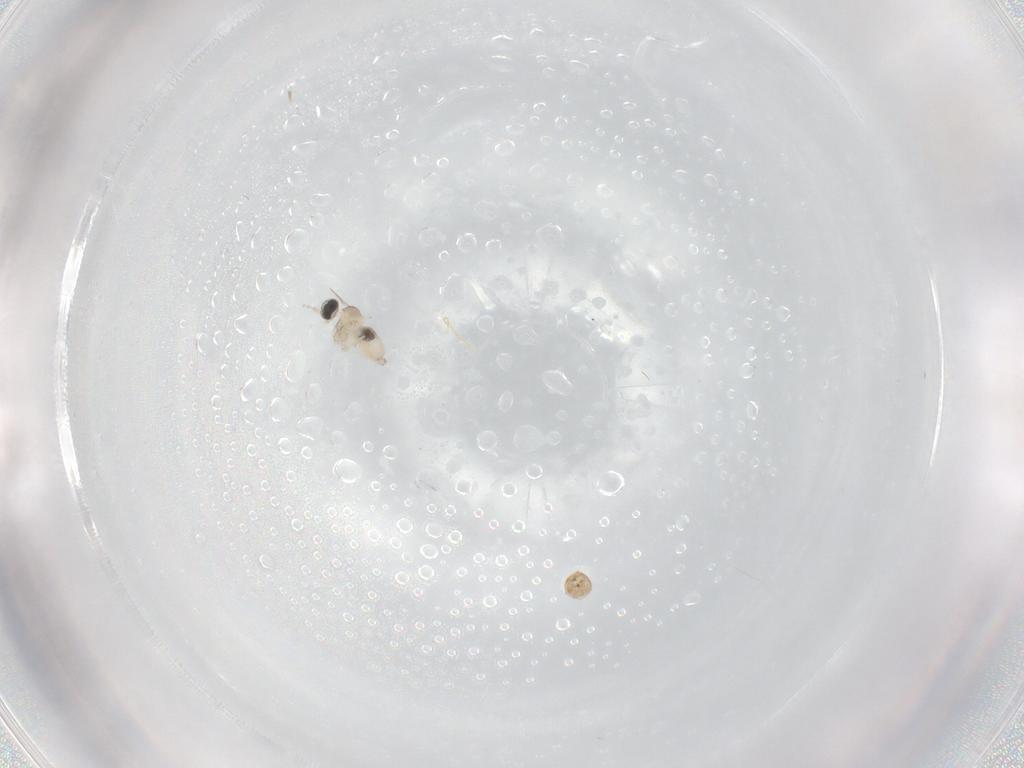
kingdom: Animalia
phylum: Arthropoda
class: Insecta
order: Diptera
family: Cecidomyiidae
